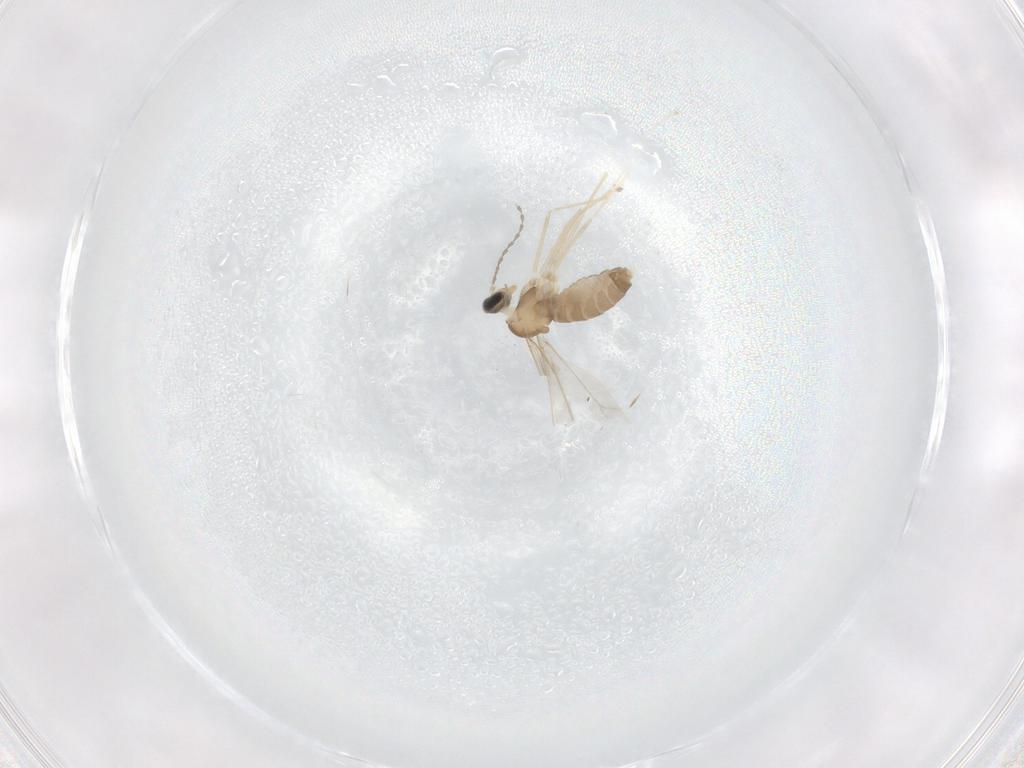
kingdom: Animalia
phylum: Arthropoda
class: Insecta
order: Diptera
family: Cecidomyiidae
